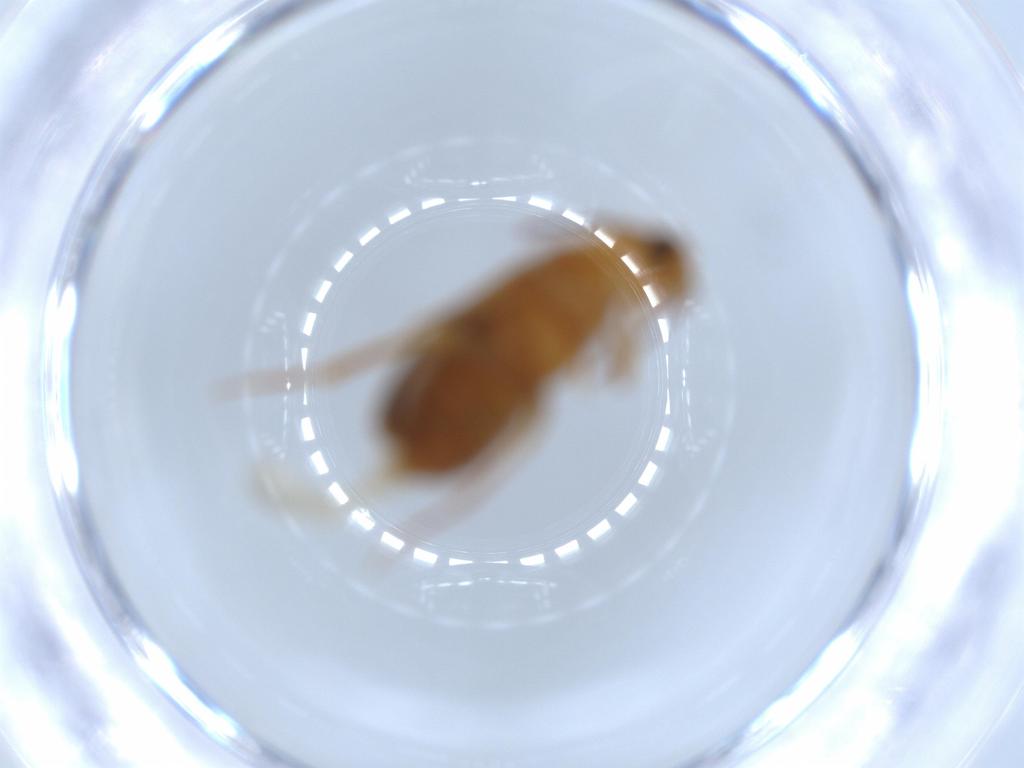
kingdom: Animalia
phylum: Arthropoda
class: Insecta
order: Coleoptera
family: Scraptiidae
